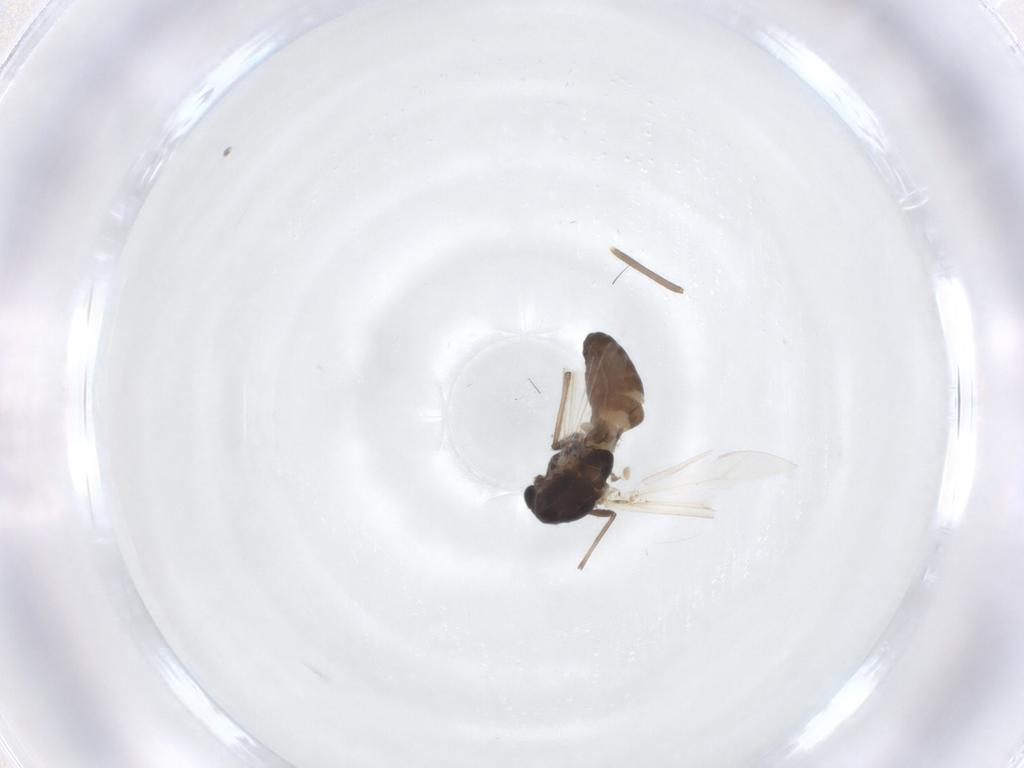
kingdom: Animalia
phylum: Arthropoda
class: Insecta
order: Diptera
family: Chironomidae
